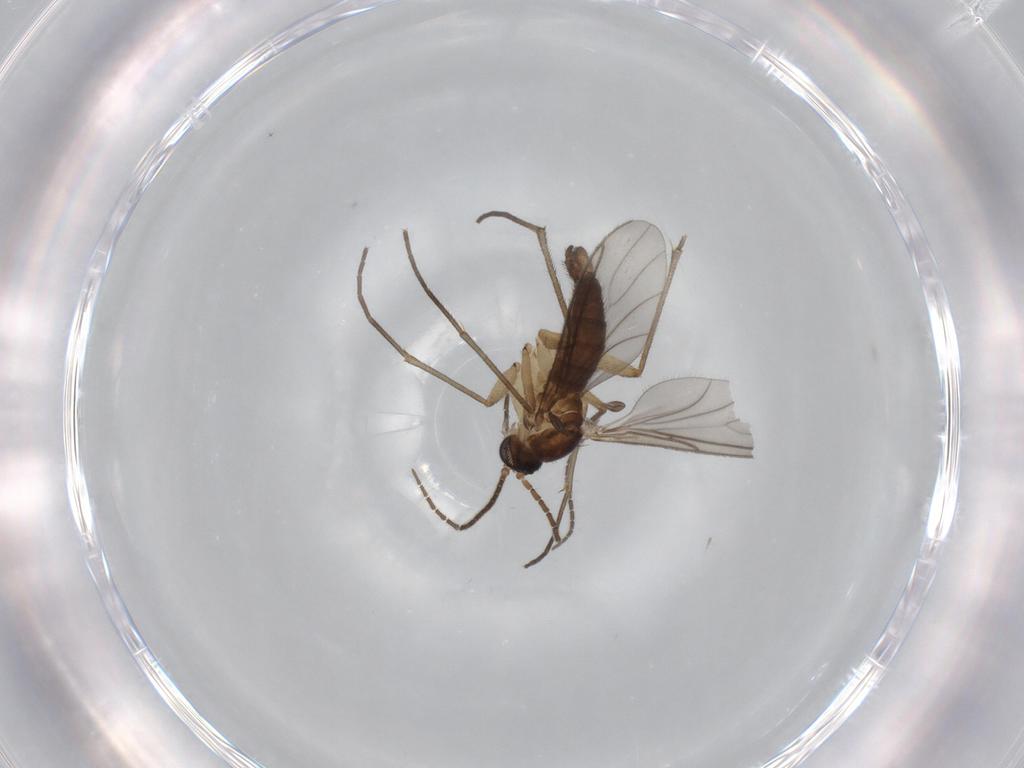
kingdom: Animalia
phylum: Arthropoda
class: Insecta
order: Diptera
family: Sciaridae
